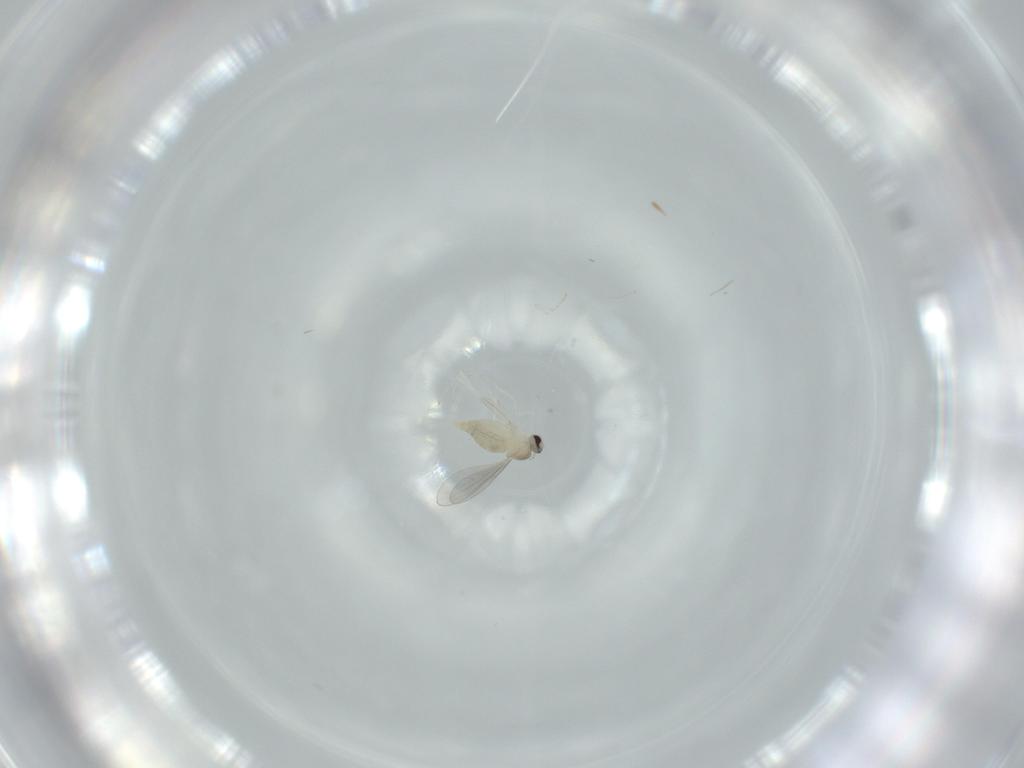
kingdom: Animalia
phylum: Arthropoda
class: Insecta
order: Diptera
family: Cecidomyiidae
